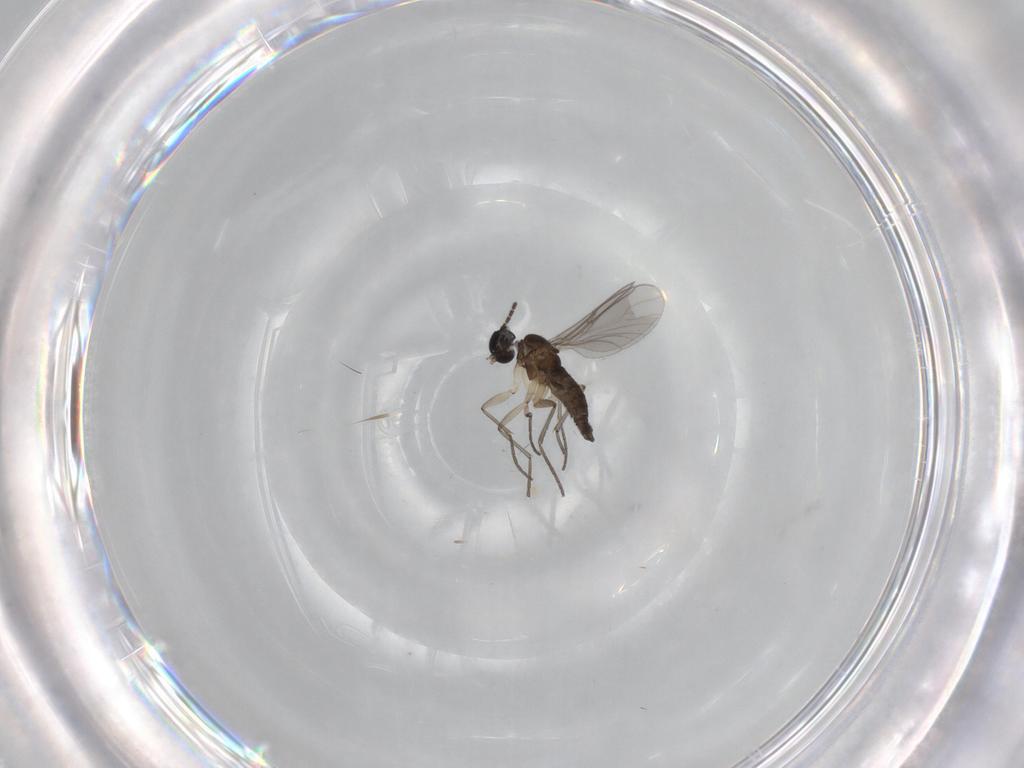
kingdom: Animalia
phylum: Arthropoda
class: Insecta
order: Diptera
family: Sciaridae
